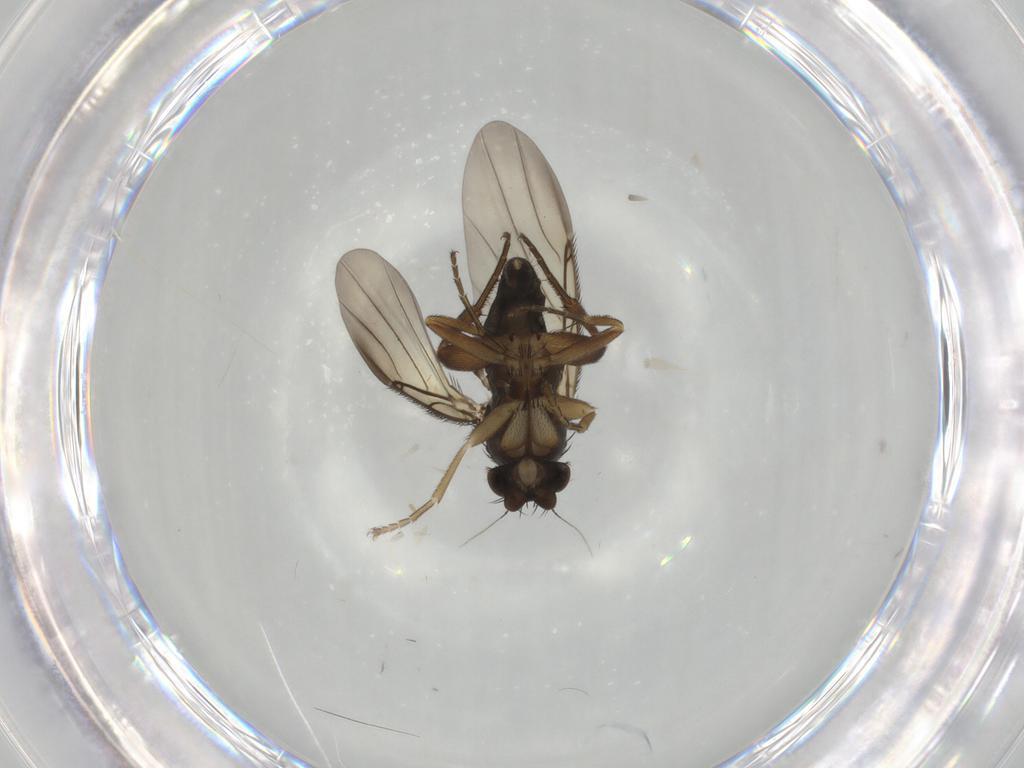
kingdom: Animalia
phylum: Arthropoda
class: Insecta
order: Diptera
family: Phoridae
